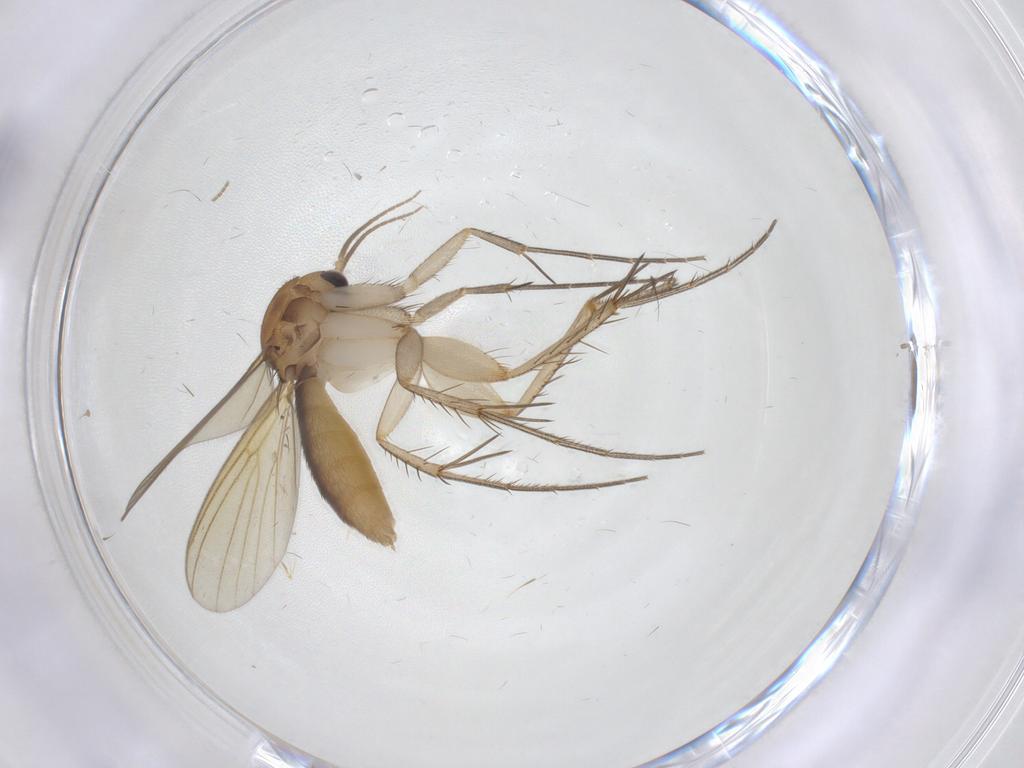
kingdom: Animalia
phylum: Arthropoda
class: Insecta
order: Diptera
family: Mycetophilidae
